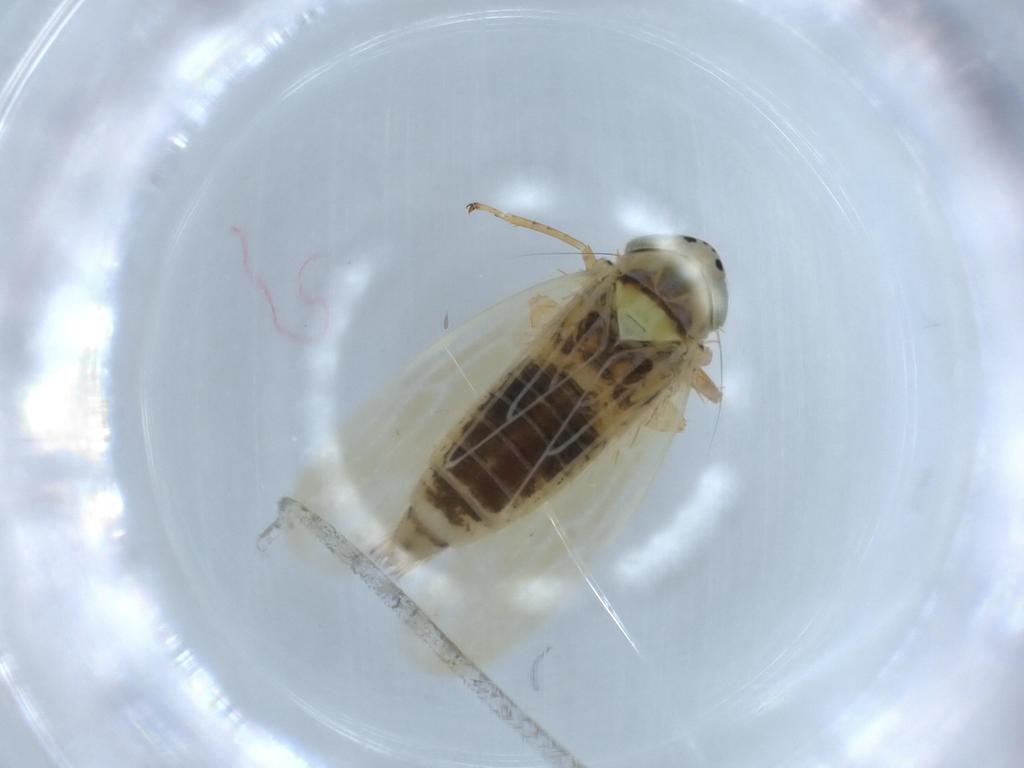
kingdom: Animalia
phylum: Arthropoda
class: Insecta
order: Hemiptera
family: Cicadellidae
